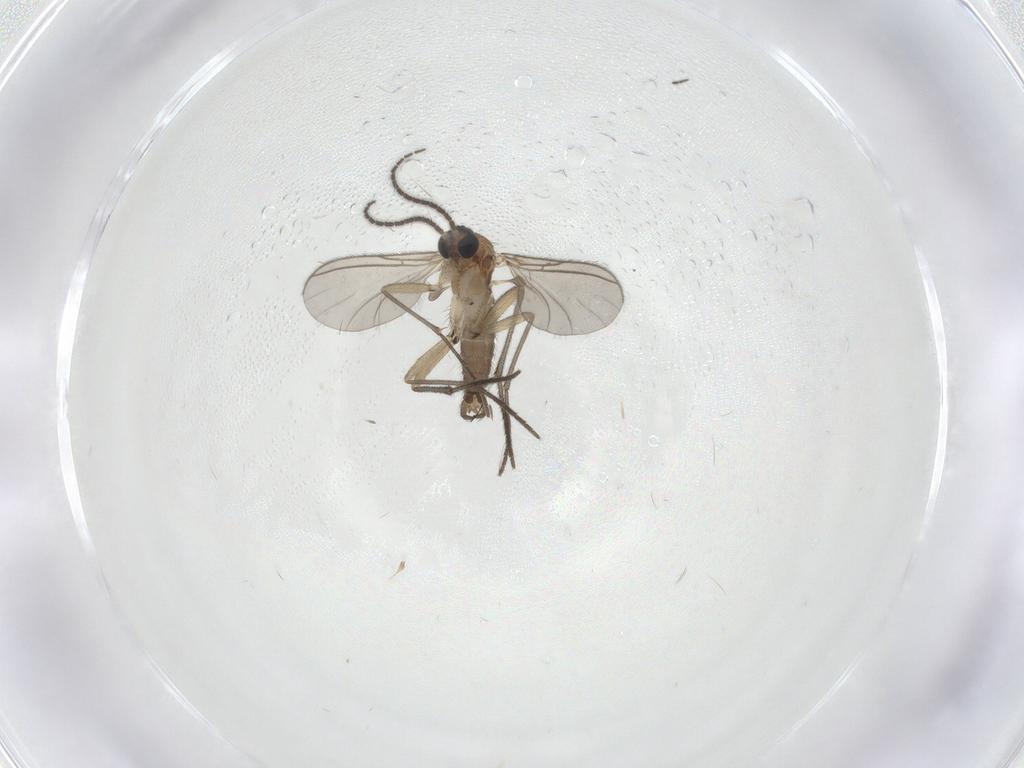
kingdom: Animalia
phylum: Arthropoda
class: Insecta
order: Diptera
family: Sciaridae
